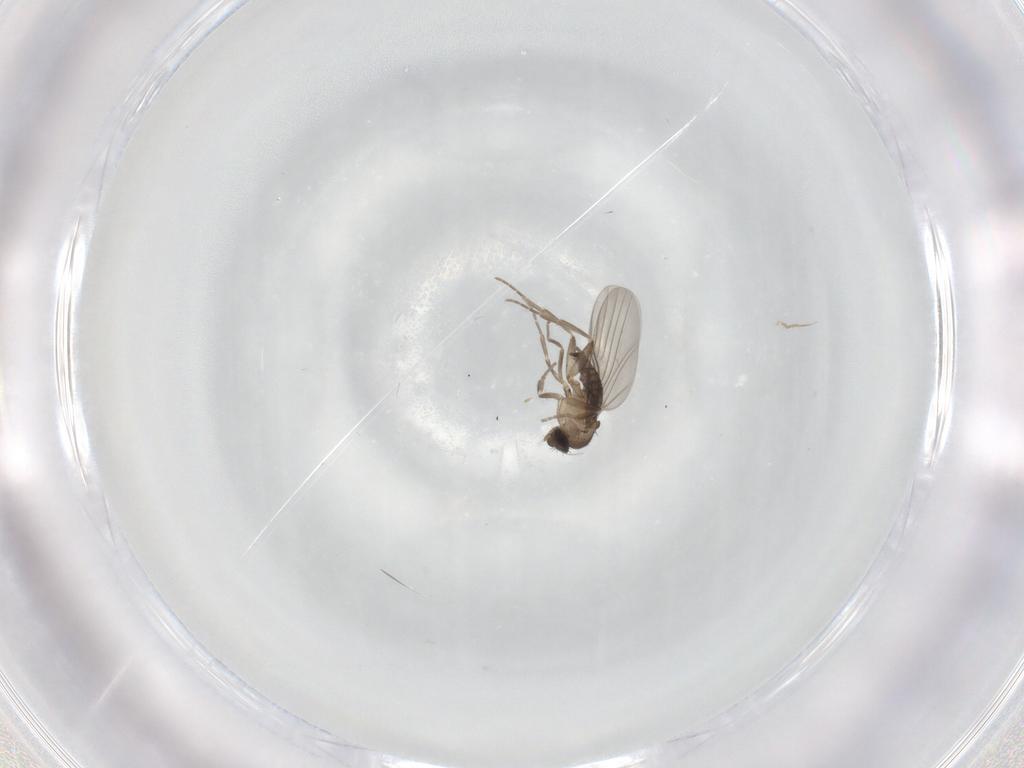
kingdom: Animalia
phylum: Arthropoda
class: Insecta
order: Diptera
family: Phoridae
